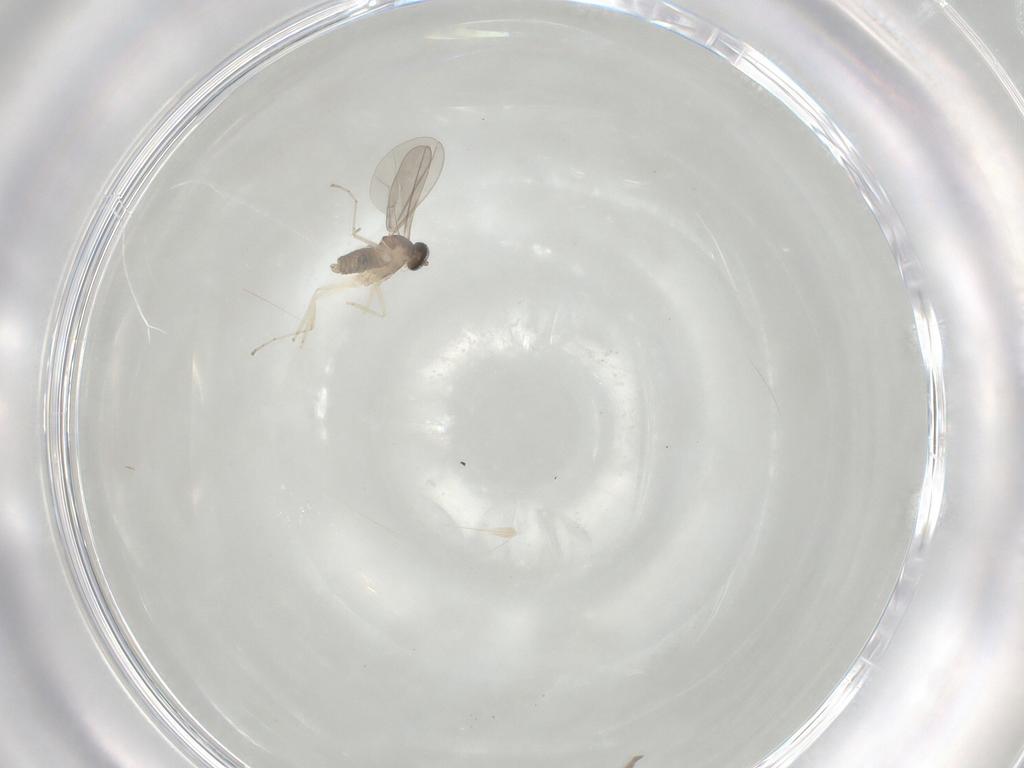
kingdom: Animalia
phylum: Arthropoda
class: Insecta
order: Diptera
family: Cecidomyiidae
